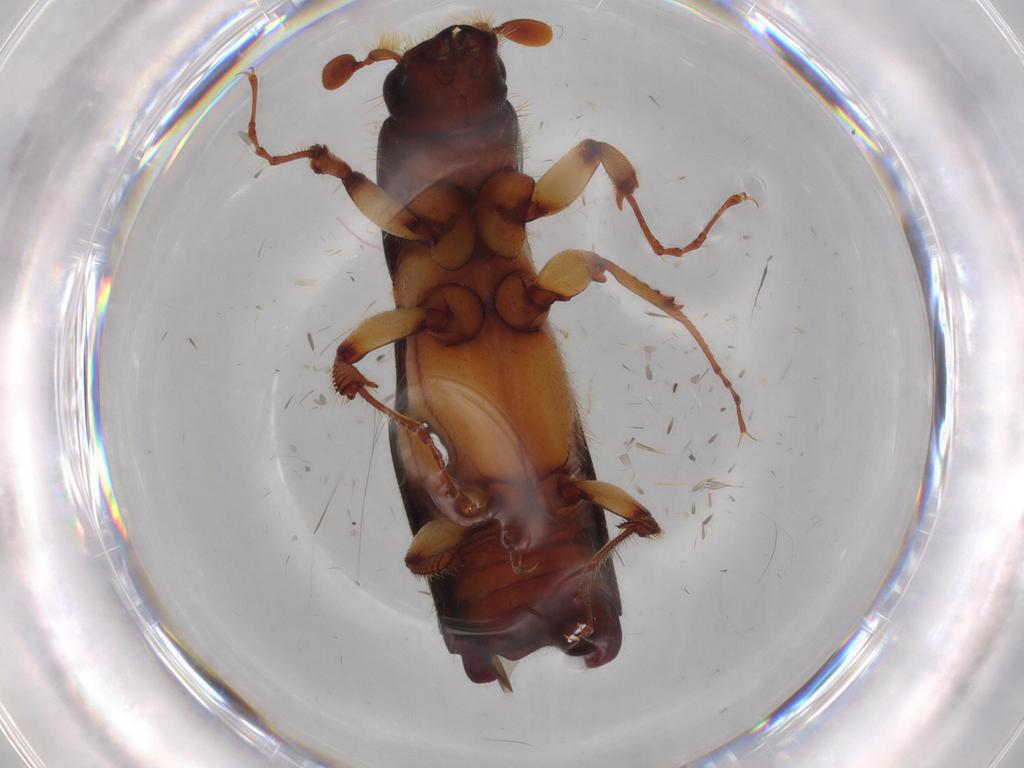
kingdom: Animalia
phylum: Arthropoda
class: Insecta
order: Coleoptera
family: Curculionidae
